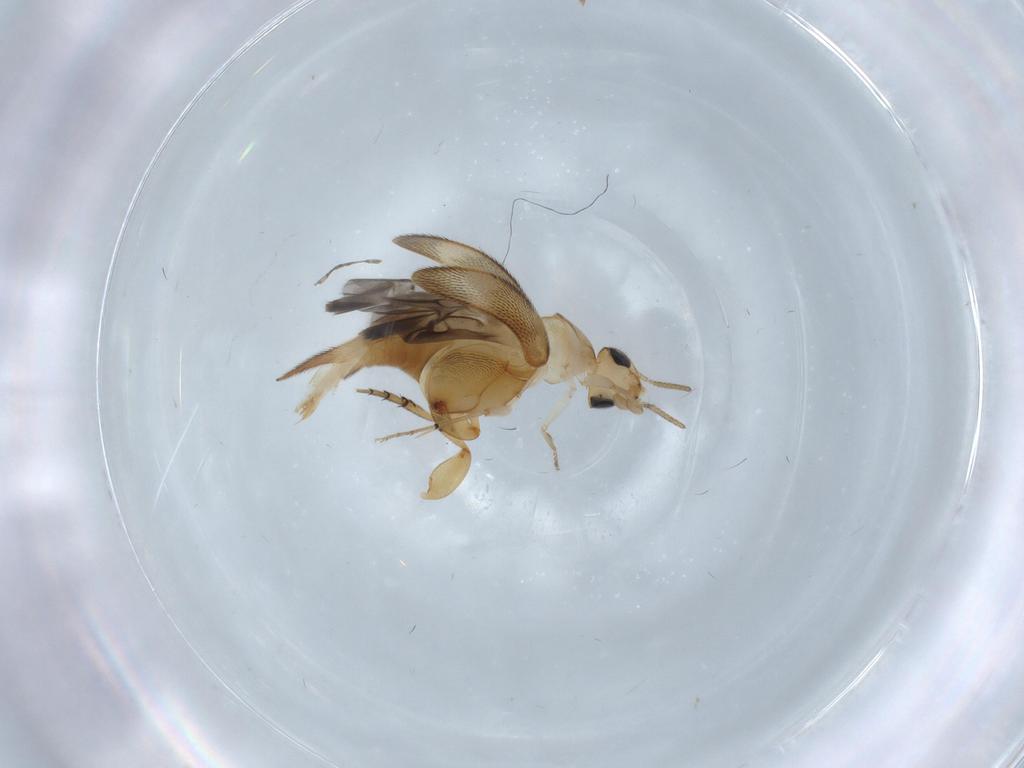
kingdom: Animalia
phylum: Arthropoda
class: Insecta
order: Coleoptera
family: Mordellidae
